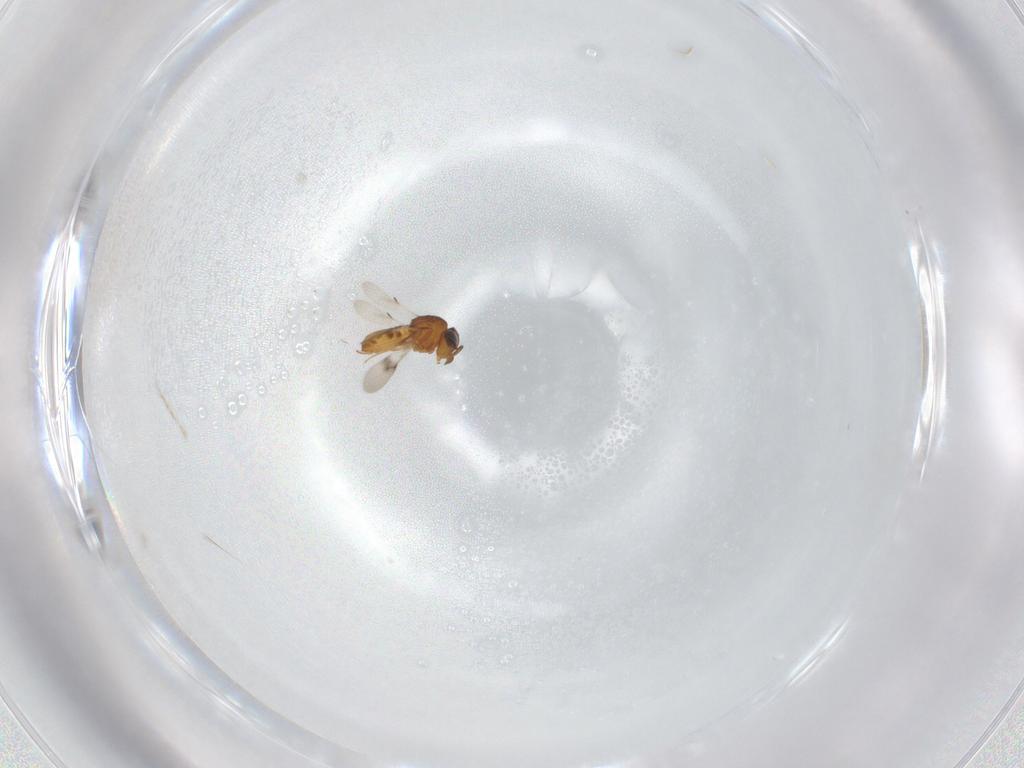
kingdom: Animalia
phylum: Arthropoda
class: Insecta
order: Hymenoptera
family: Scelionidae
